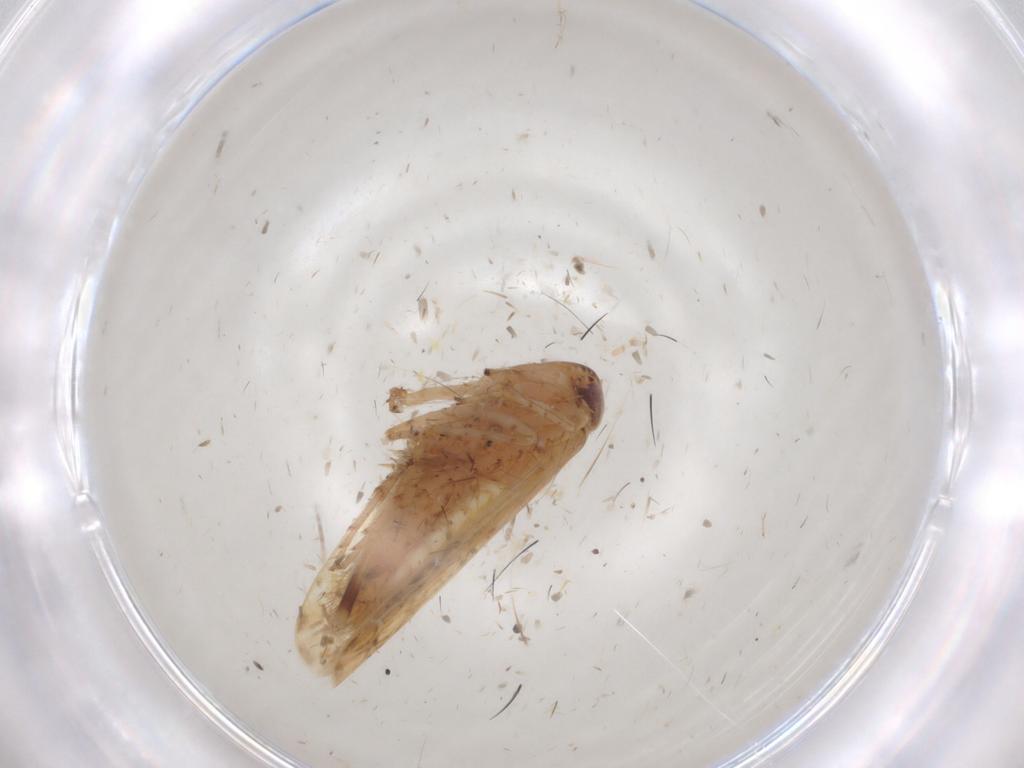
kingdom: Animalia
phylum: Arthropoda
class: Insecta
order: Hemiptera
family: Cicadellidae
